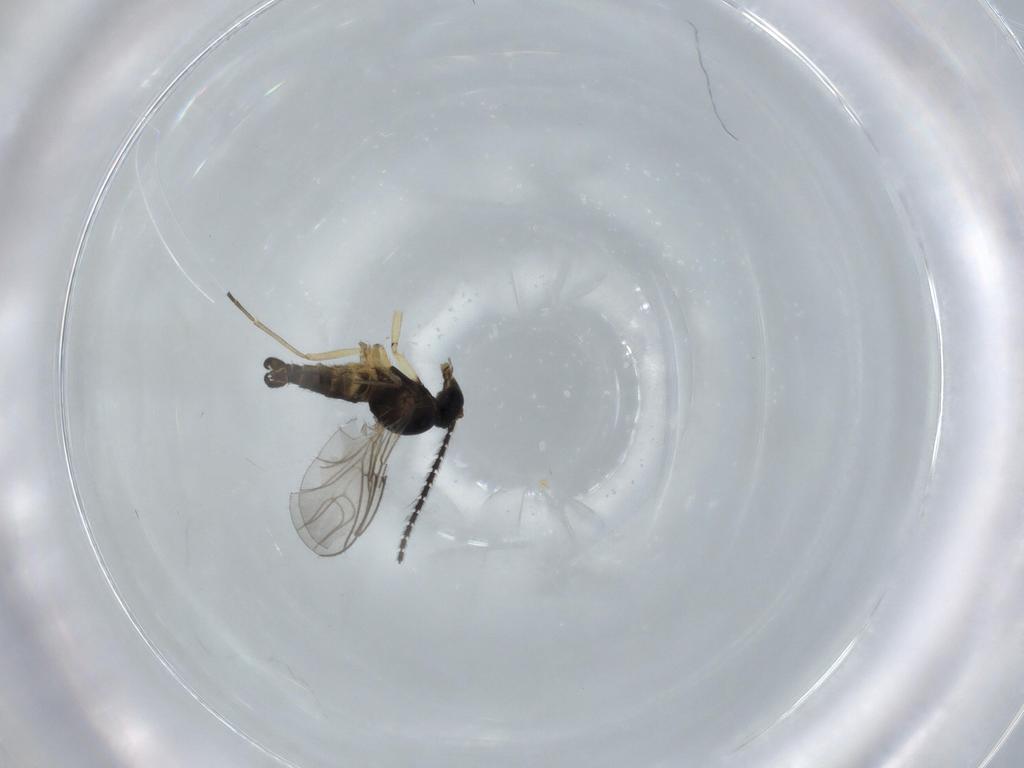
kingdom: Animalia
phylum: Arthropoda
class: Insecta
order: Diptera
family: Sciaridae
